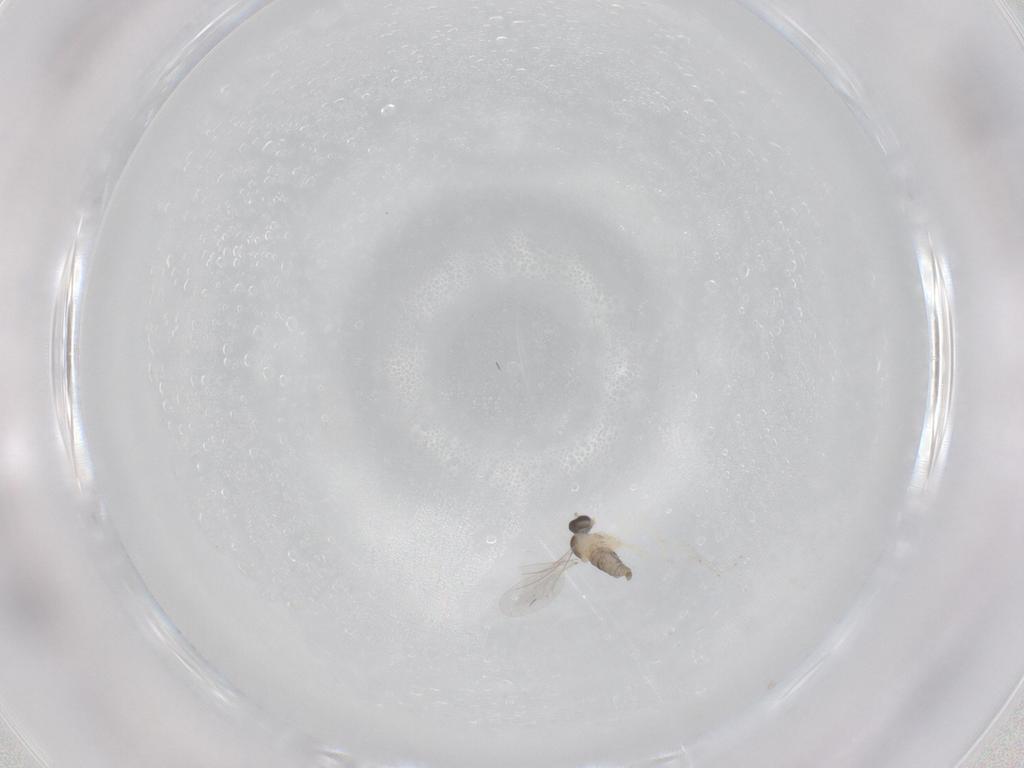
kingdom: Animalia
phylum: Arthropoda
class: Insecta
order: Diptera
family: Cecidomyiidae
